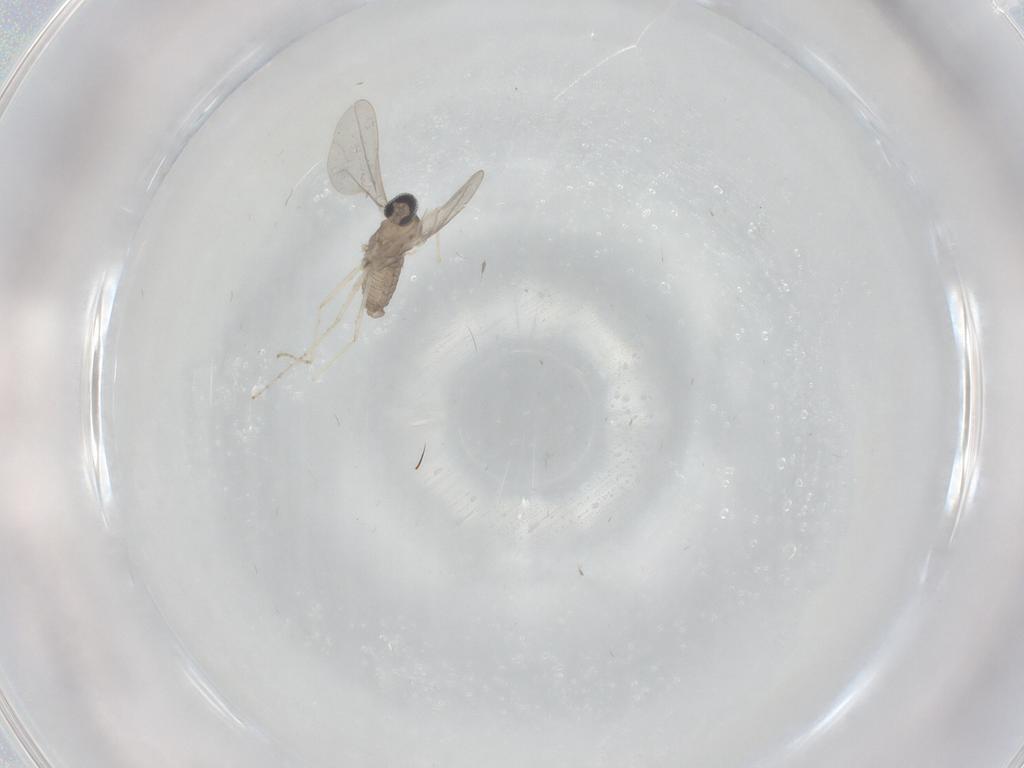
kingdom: Animalia
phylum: Arthropoda
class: Insecta
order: Diptera
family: Cecidomyiidae
